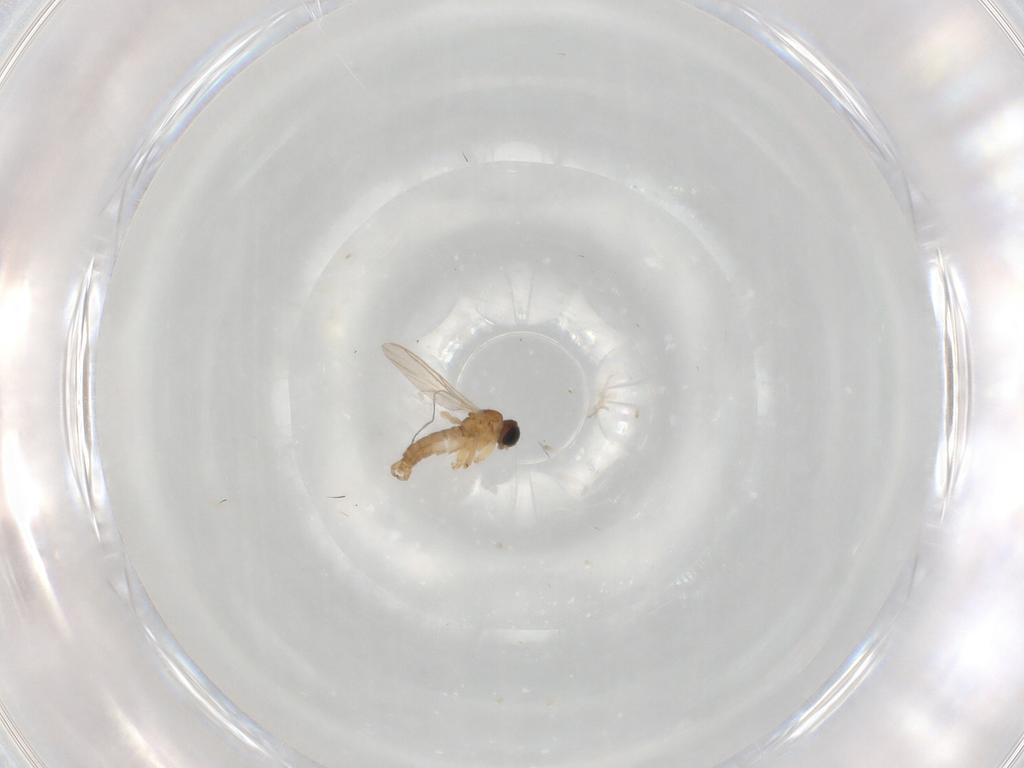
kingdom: Animalia
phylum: Arthropoda
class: Insecta
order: Diptera
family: Sciaridae
